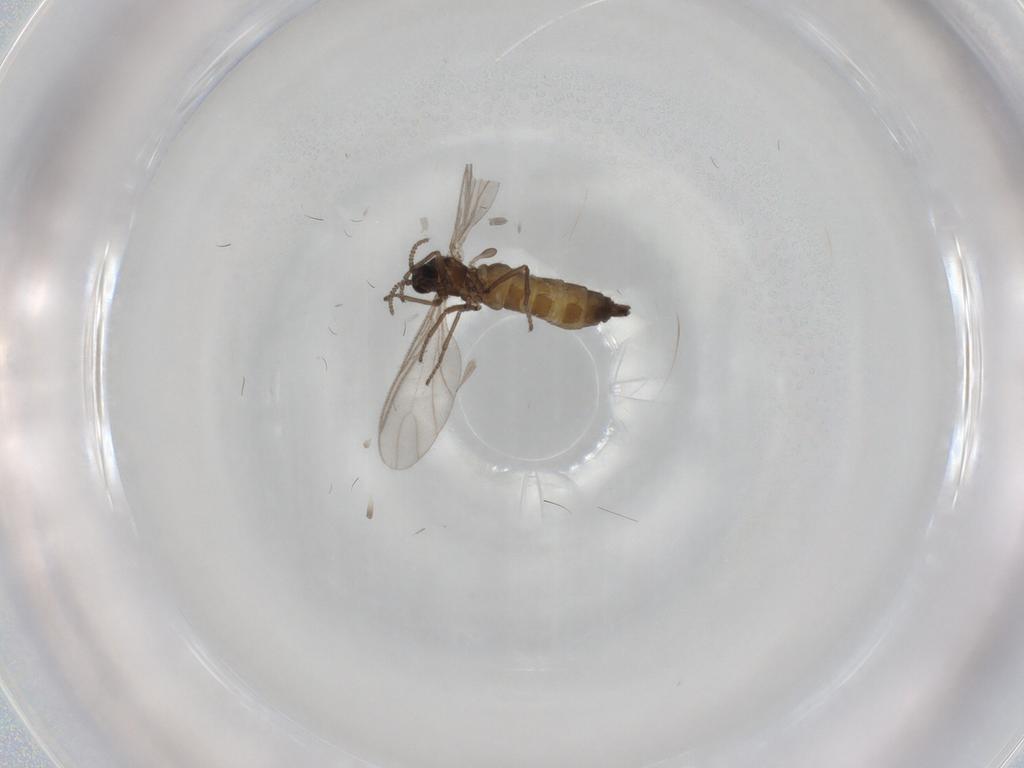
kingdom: Animalia
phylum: Arthropoda
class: Insecta
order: Diptera
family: Sciaridae
